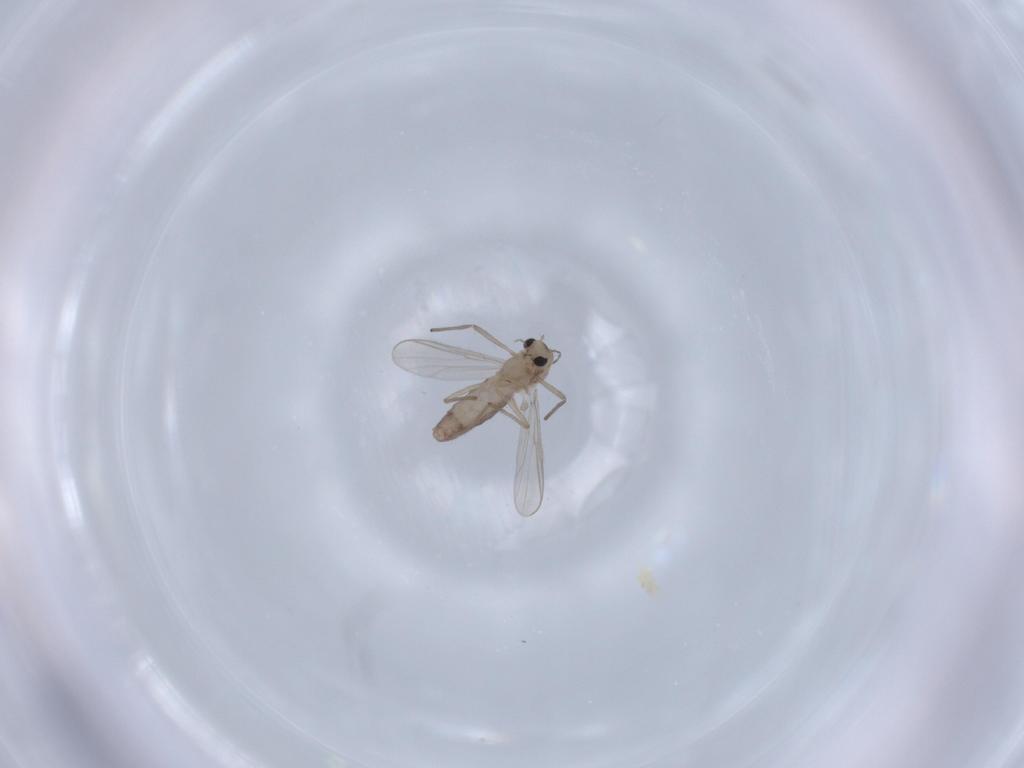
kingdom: Animalia
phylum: Arthropoda
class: Insecta
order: Diptera
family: Chironomidae
